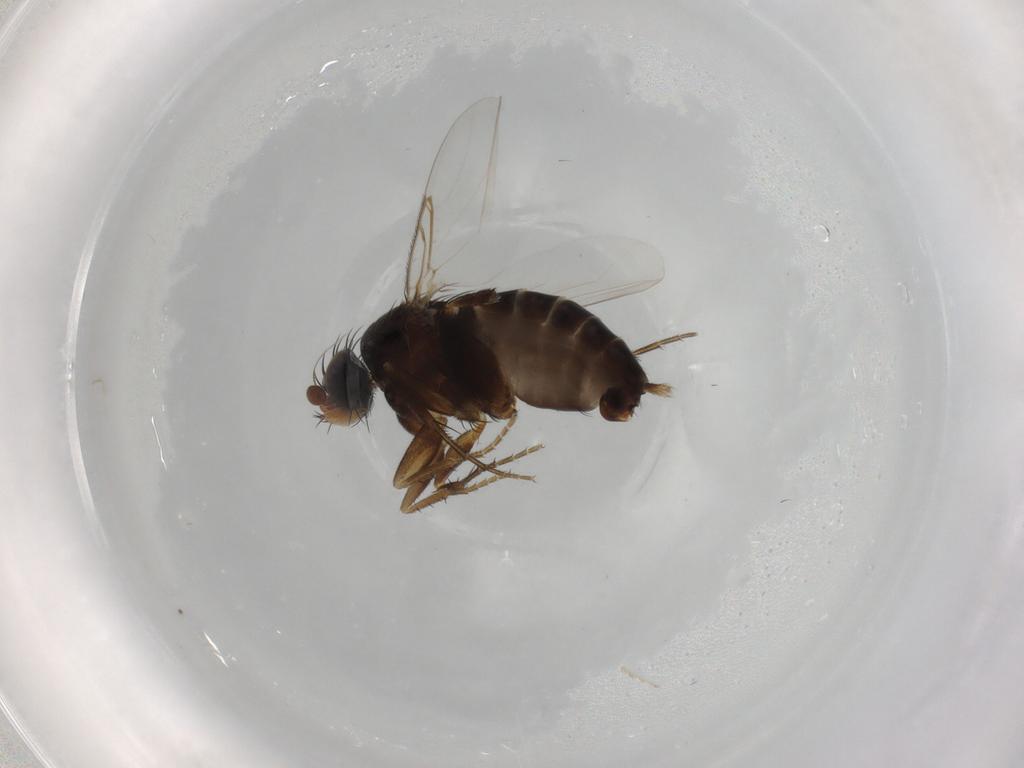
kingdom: Animalia
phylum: Arthropoda
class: Insecta
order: Diptera
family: Phoridae
